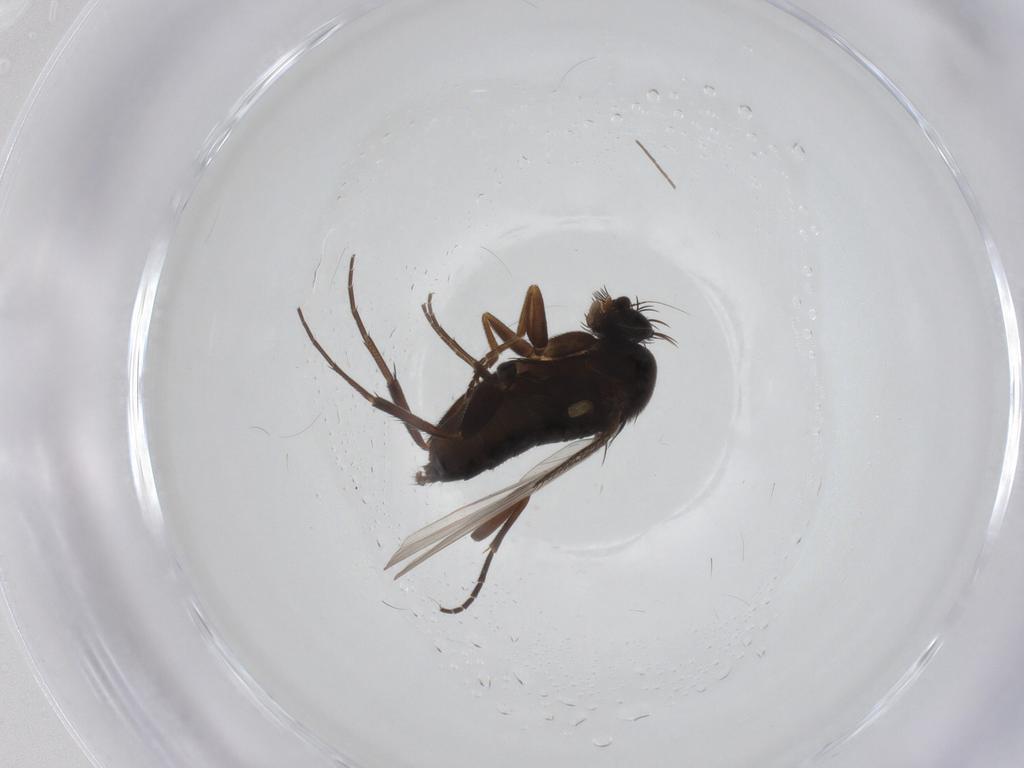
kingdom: Animalia
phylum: Arthropoda
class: Insecta
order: Diptera
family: Phoridae
